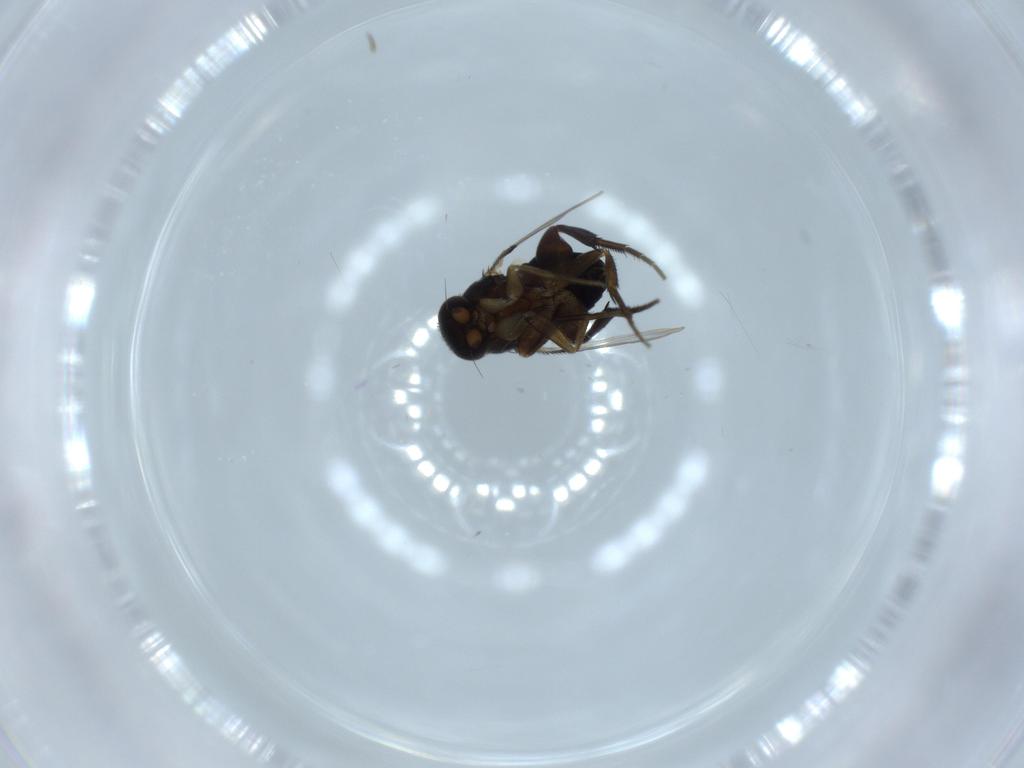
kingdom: Animalia
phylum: Arthropoda
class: Insecta
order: Diptera
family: Phoridae
